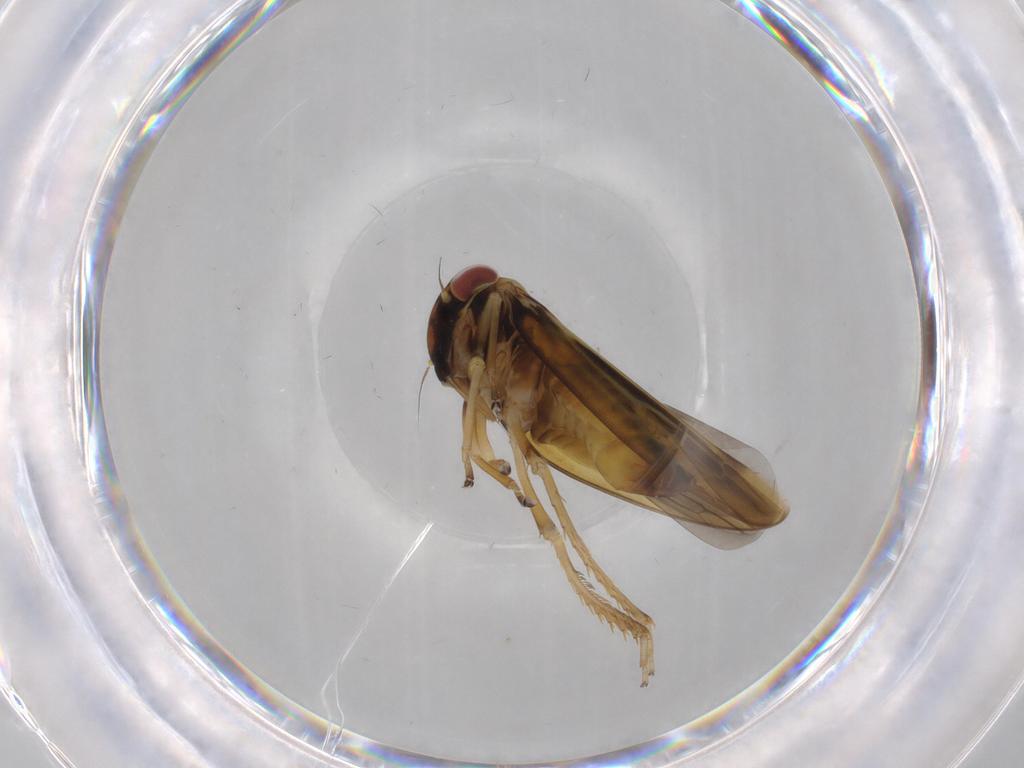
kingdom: Animalia
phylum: Arthropoda
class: Insecta
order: Hemiptera
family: Cicadellidae
